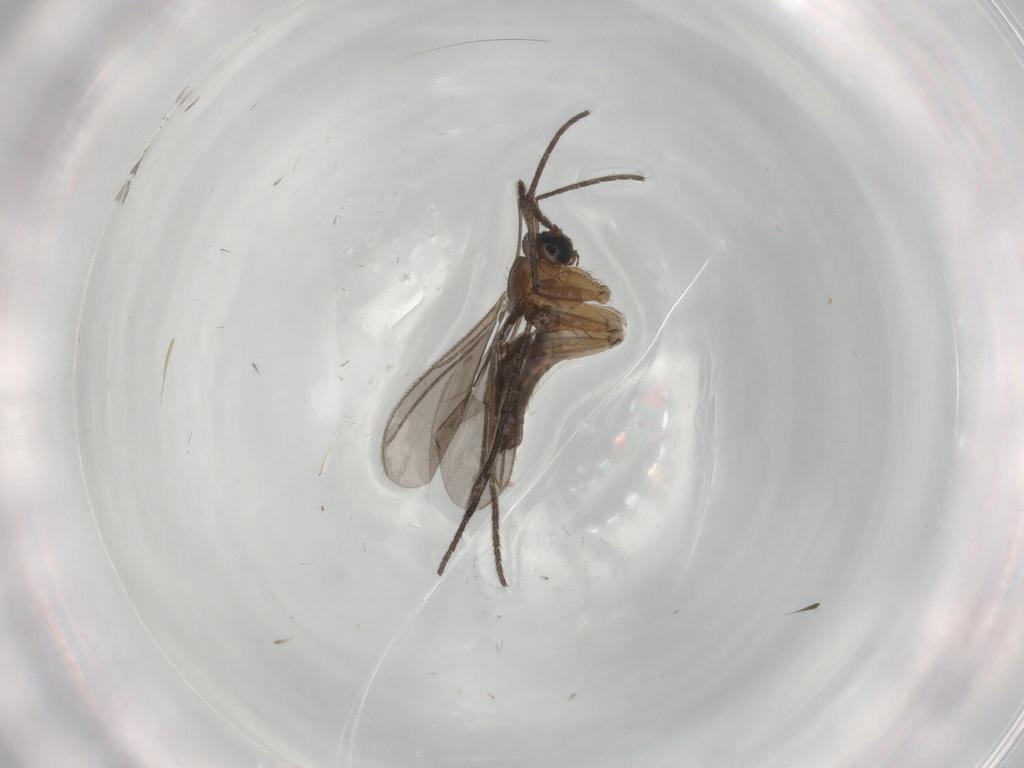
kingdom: Animalia
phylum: Arthropoda
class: Insecta
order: Diptera
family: Sciaridae
